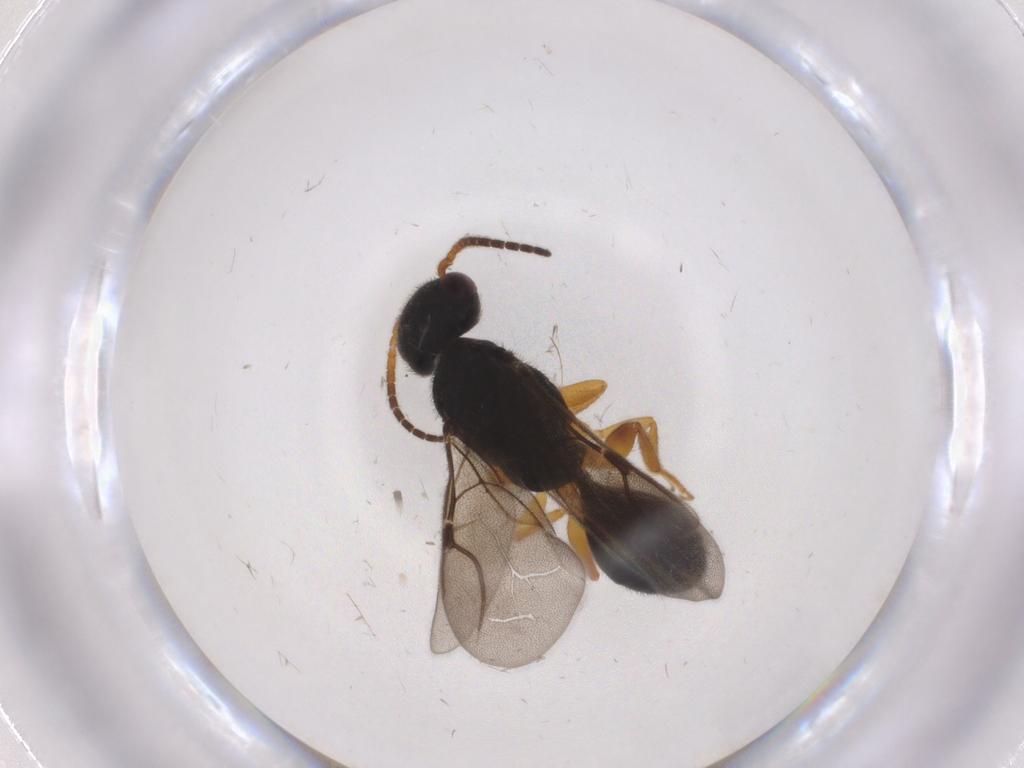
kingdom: Animalia
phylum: Arthropoda
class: Insecta
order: Hymenoptera
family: Bethylidae
